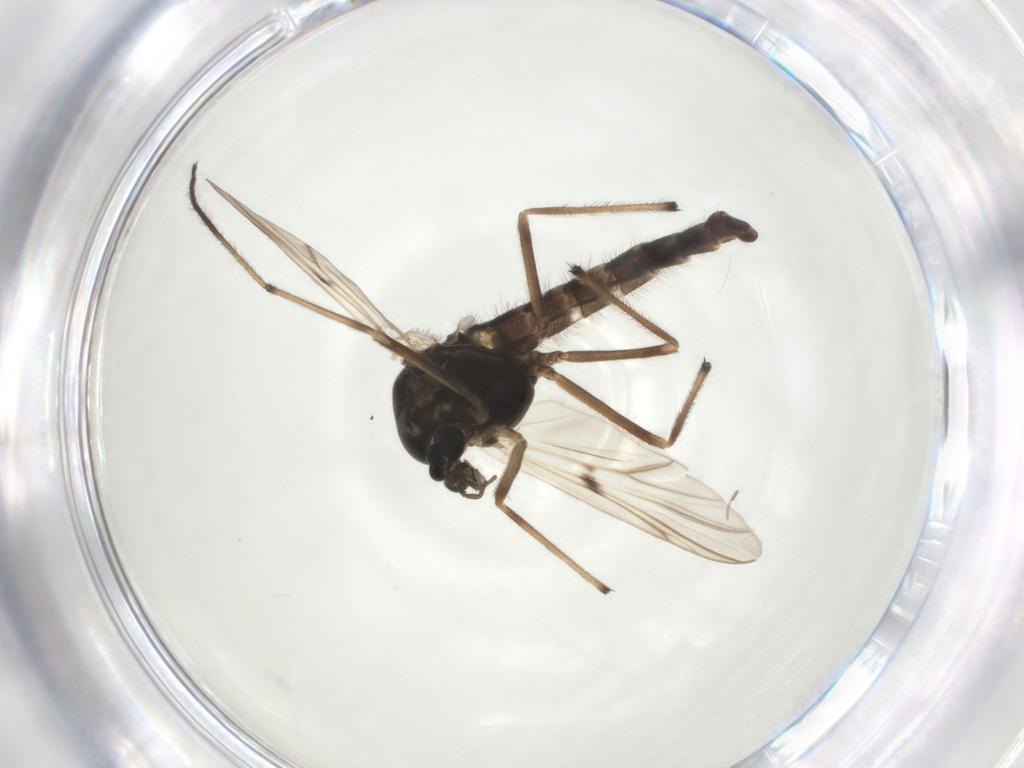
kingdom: Animalia
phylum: Arthropoda
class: Insecta
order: Diptera
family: Chironomidae
